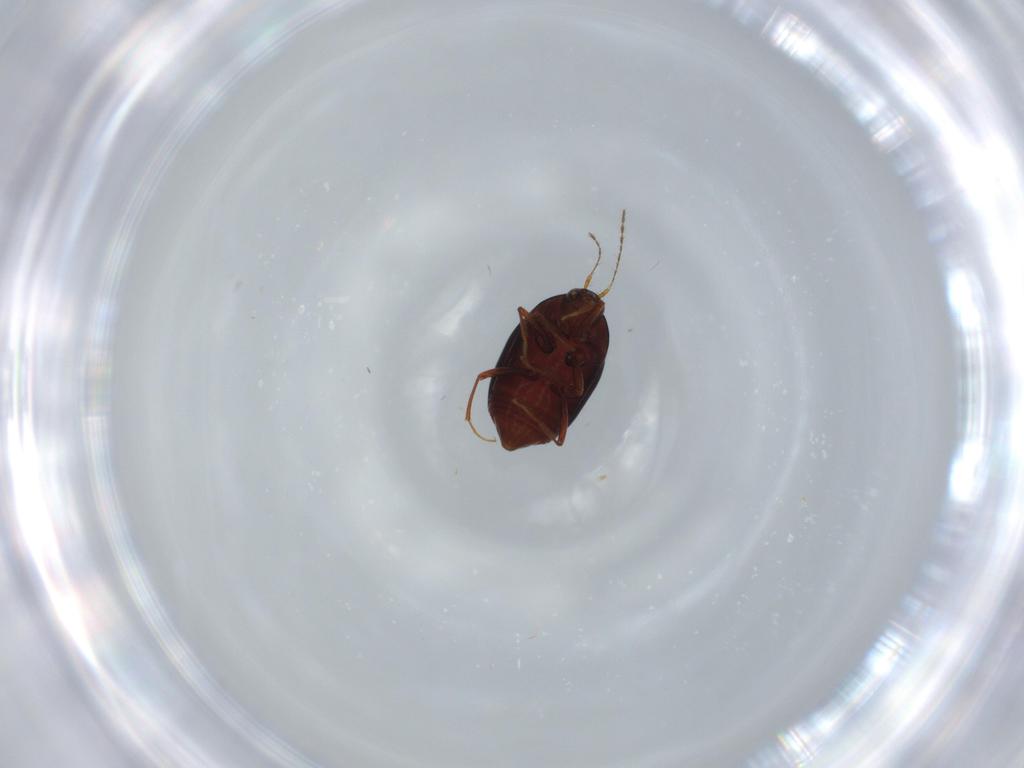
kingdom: Animalia
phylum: Arthropoda
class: Insecta
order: Coleoptera
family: Staphylinidae
